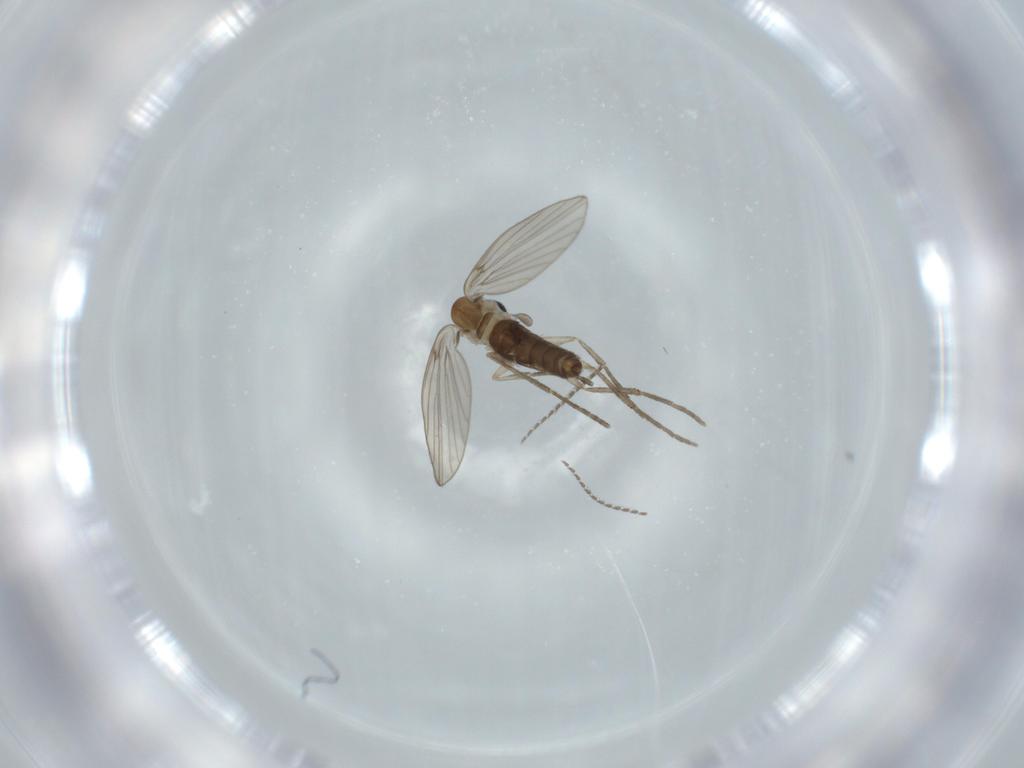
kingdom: Animalia
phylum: Arthropoda
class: Insecta
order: Diptera
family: Psychodidae
